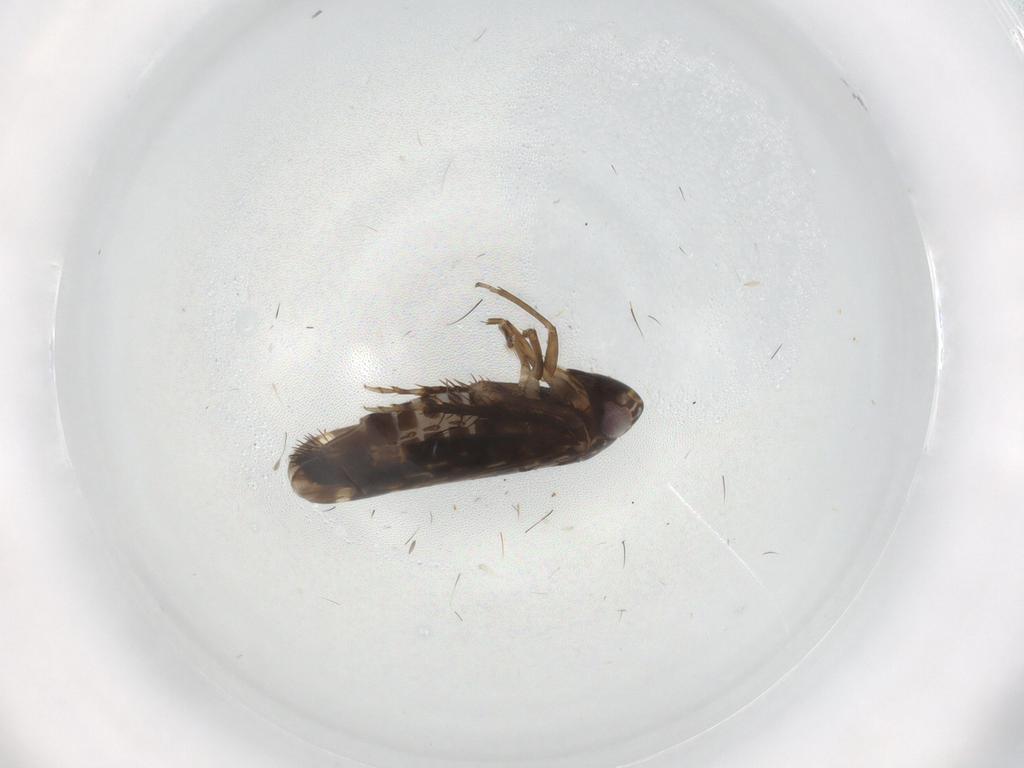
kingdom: Animalia
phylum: Arthropoda
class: Insecta
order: Hemiptera
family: Cicadellidae
